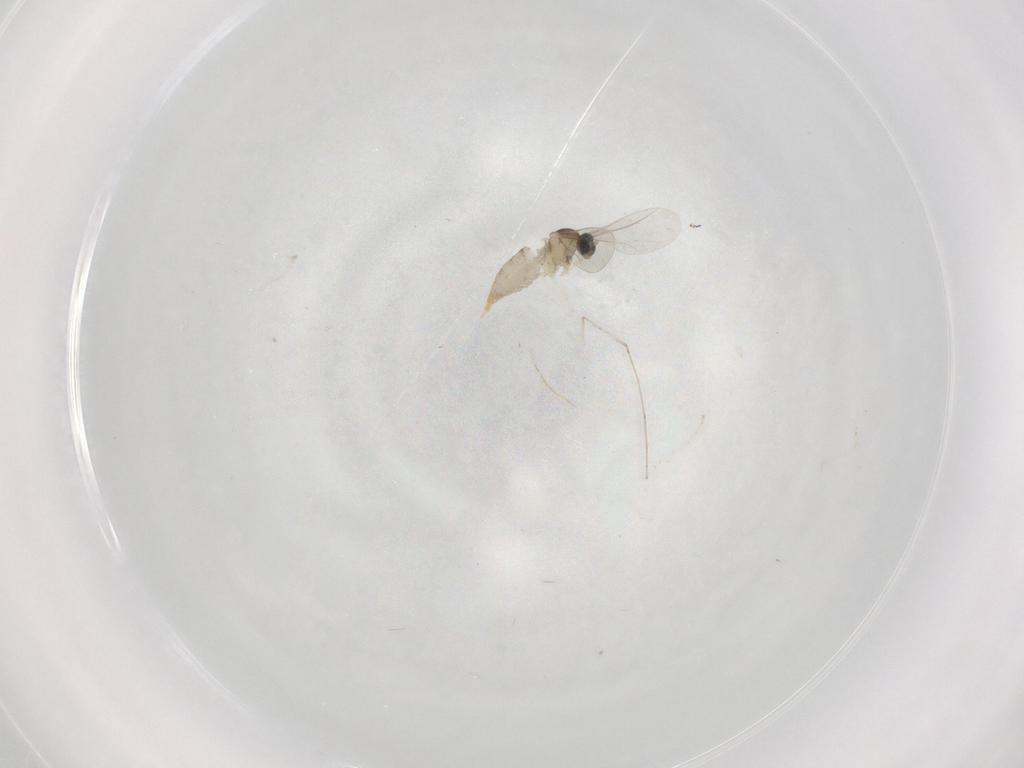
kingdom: Animalia
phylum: Arthropoda
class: Insecta
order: Diptera
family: Cecidomyiidae
